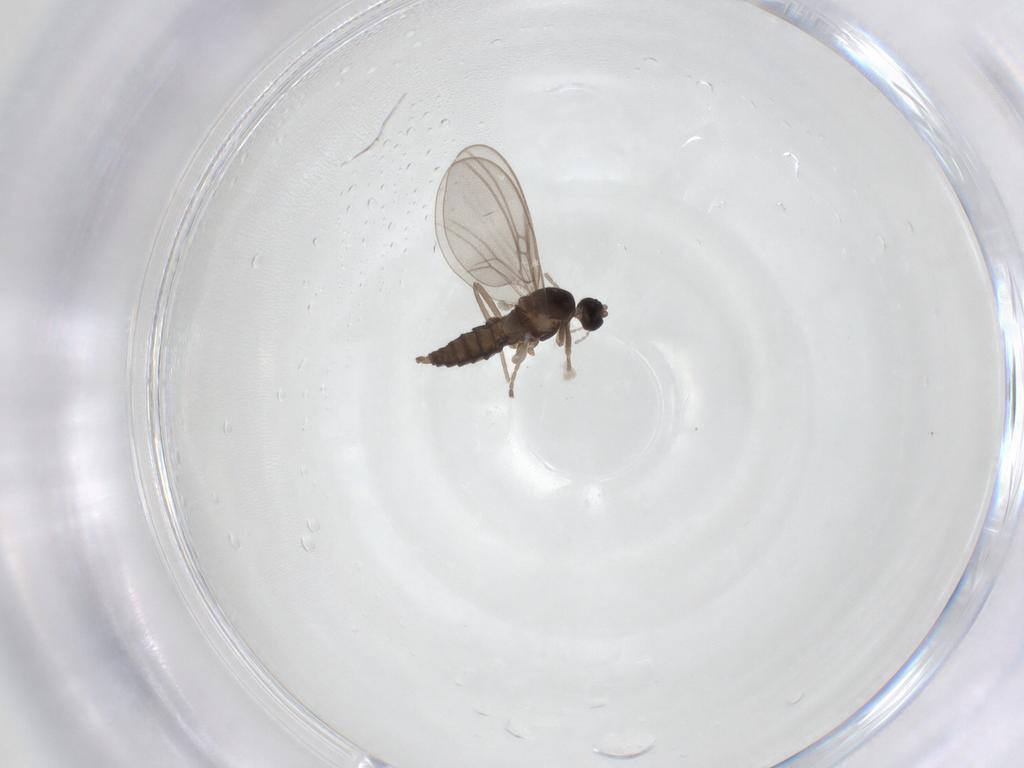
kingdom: Animalia
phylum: Arthropoda
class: Insecta
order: Diptera
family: Cecidomyiidae
